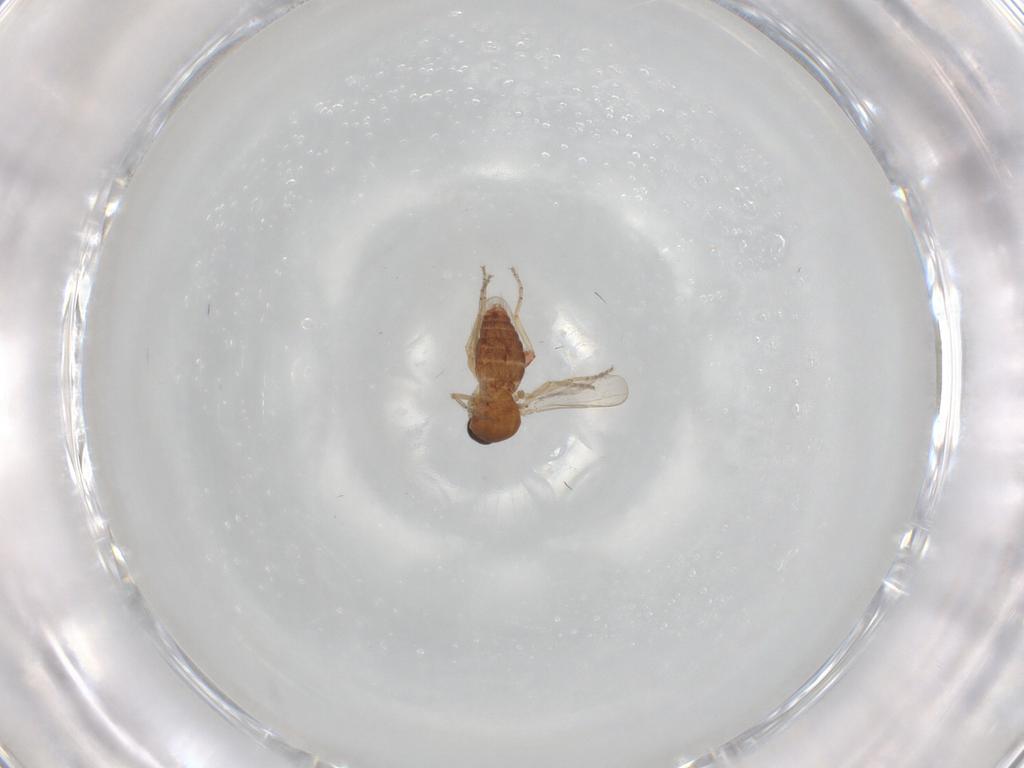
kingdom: Animalia
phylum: Arthropoda
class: Insecta
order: Diptera
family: Ceratopogonidae
